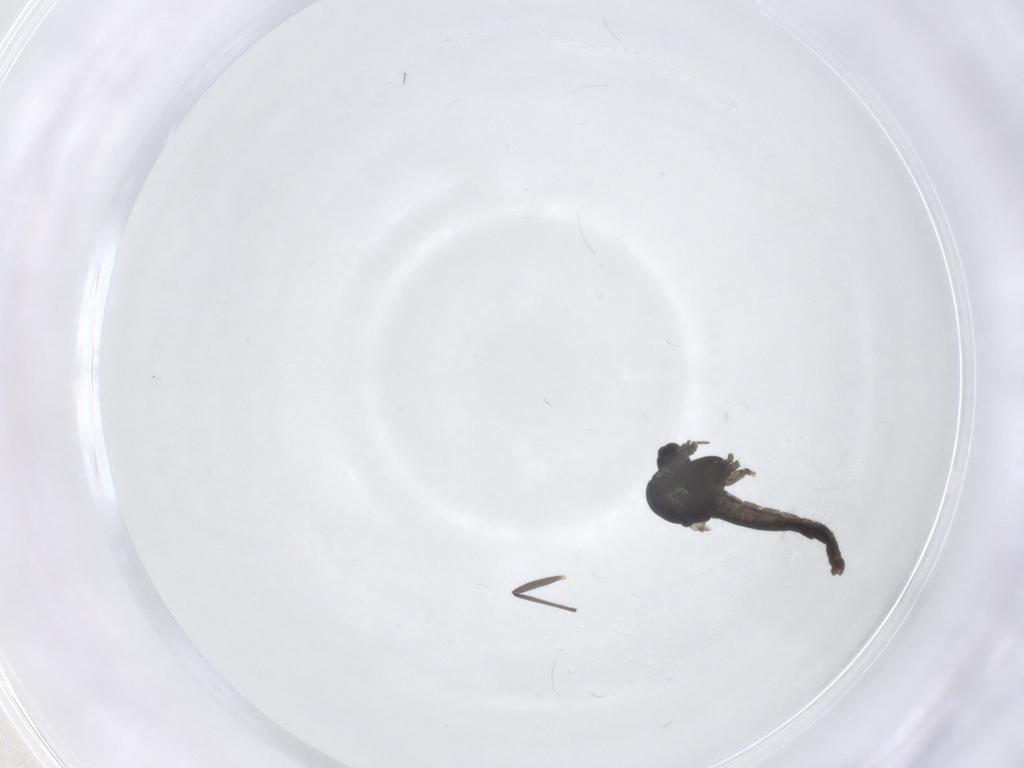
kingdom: Animalia
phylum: Arthropoda
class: Insecta
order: Diptera
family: Chironomidae
